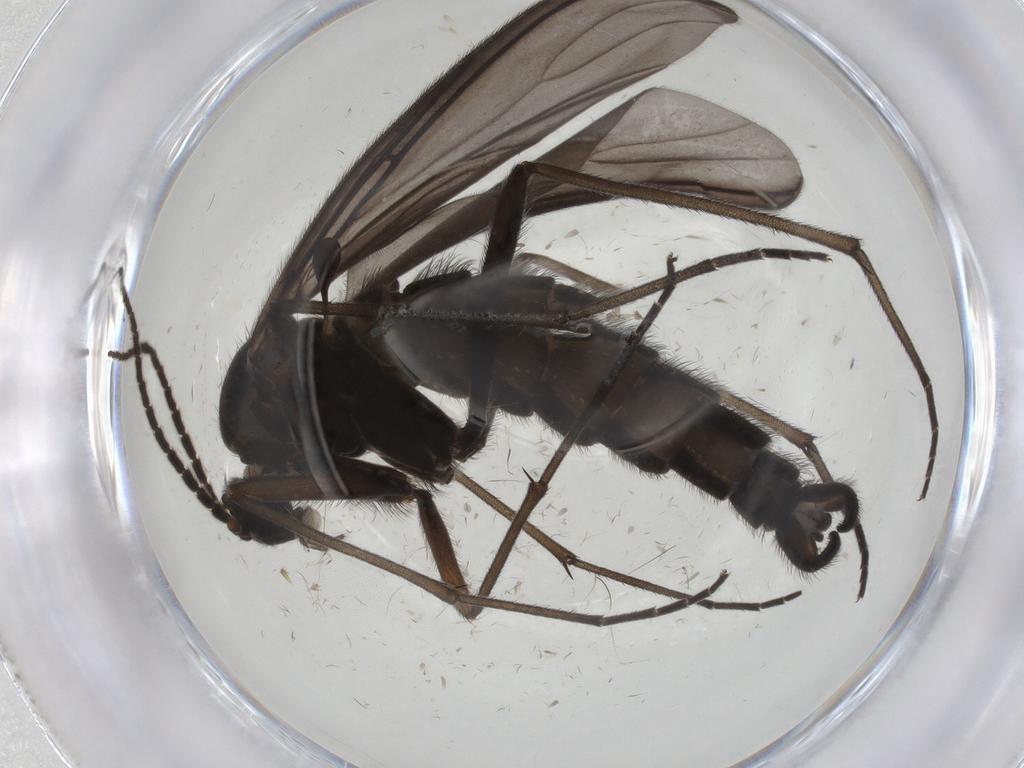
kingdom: Animalia
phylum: Arthropoda
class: Insecta
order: Diptera
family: Sciaridae
